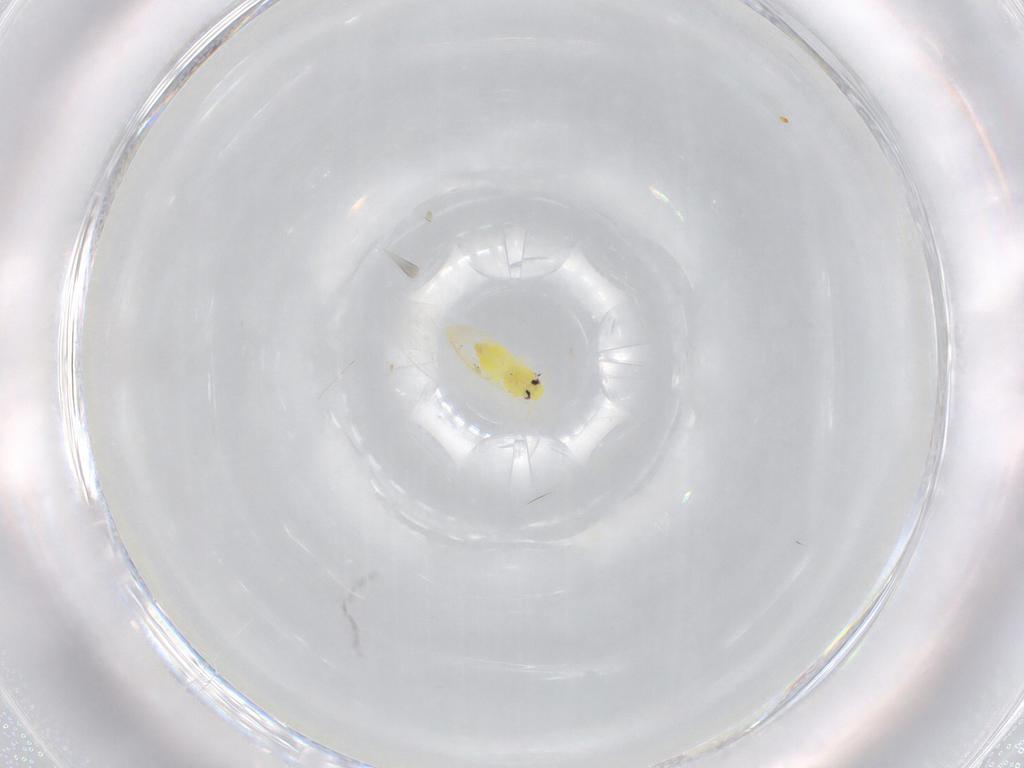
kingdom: Animalia
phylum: Arthropoda
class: Insecta
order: Hemiptera
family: Aleyrodidae
